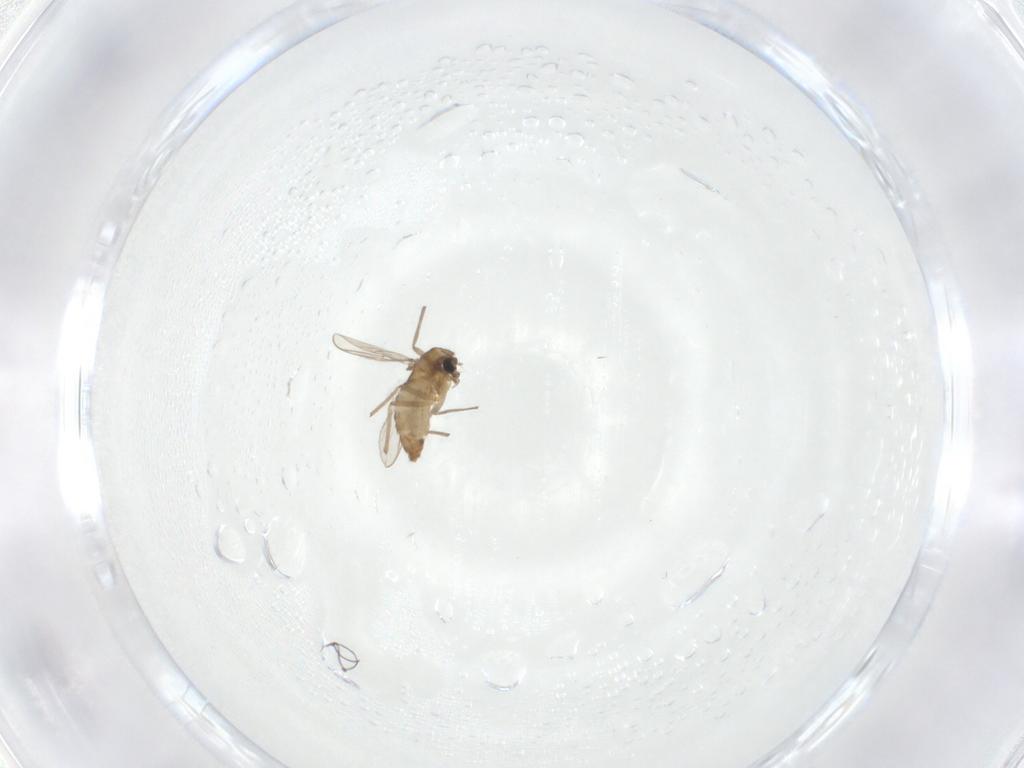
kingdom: Animalia
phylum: Arthropoda
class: Insecta
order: Diptera
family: Chironomidae
